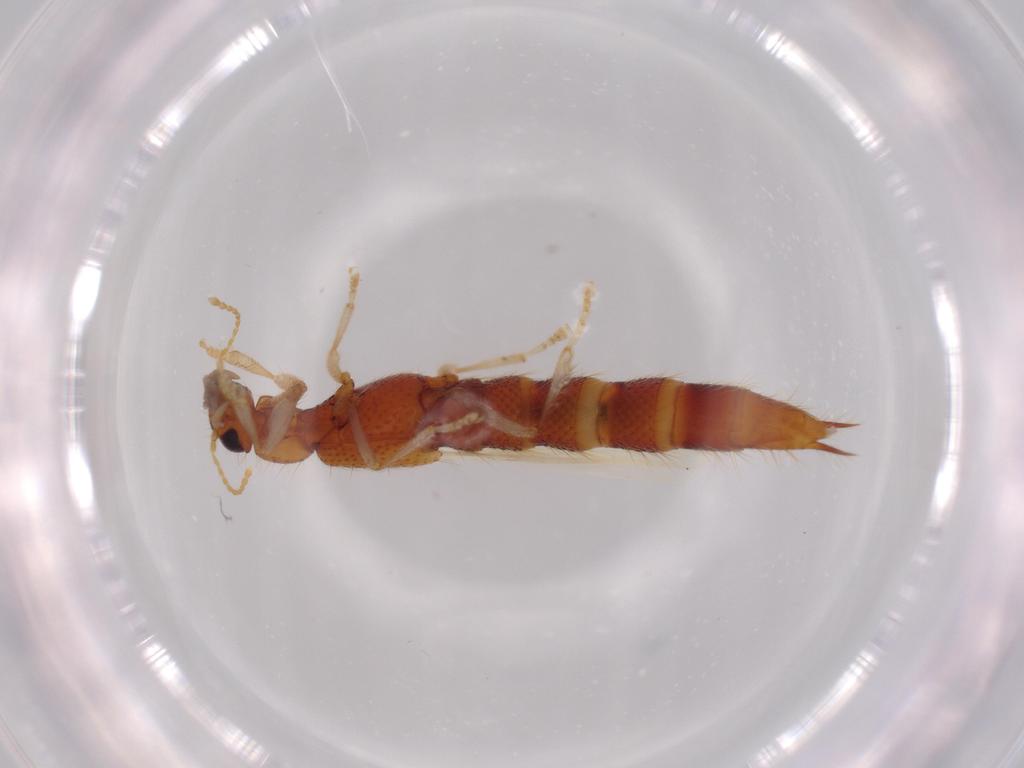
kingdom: Animalia
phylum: Arthropoda
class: Insecta
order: Coleoptera
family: Staphylinidae
